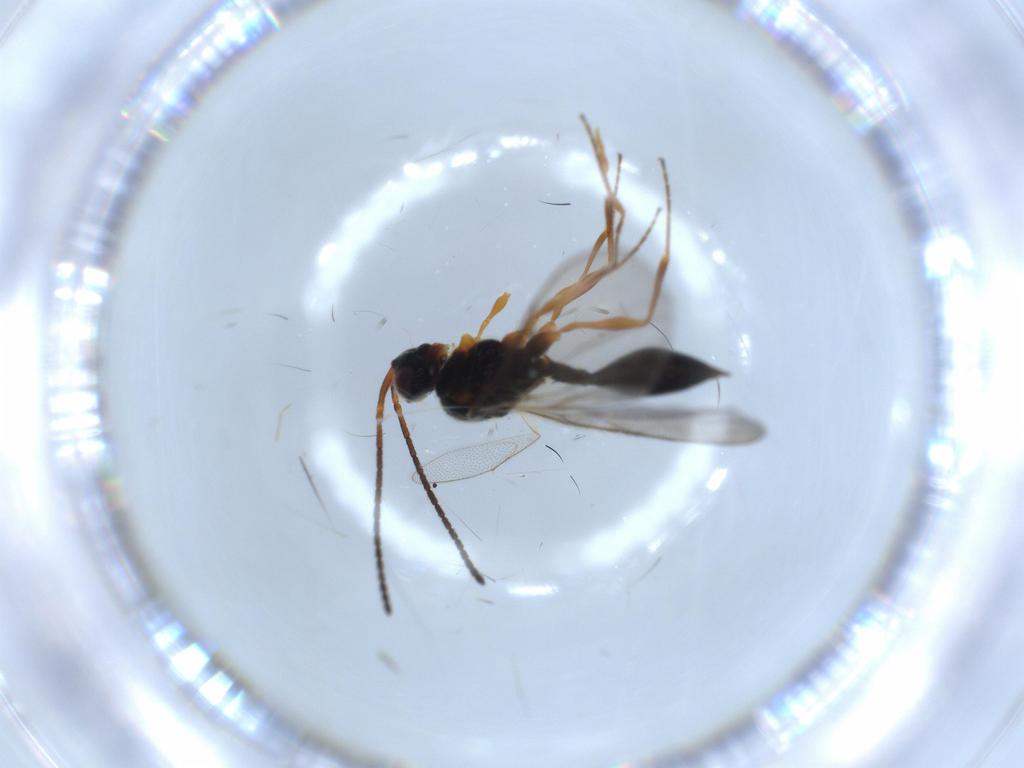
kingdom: Animalia
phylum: Arthropoda
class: Insecta
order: Hymenoptera
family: Diapriidae
